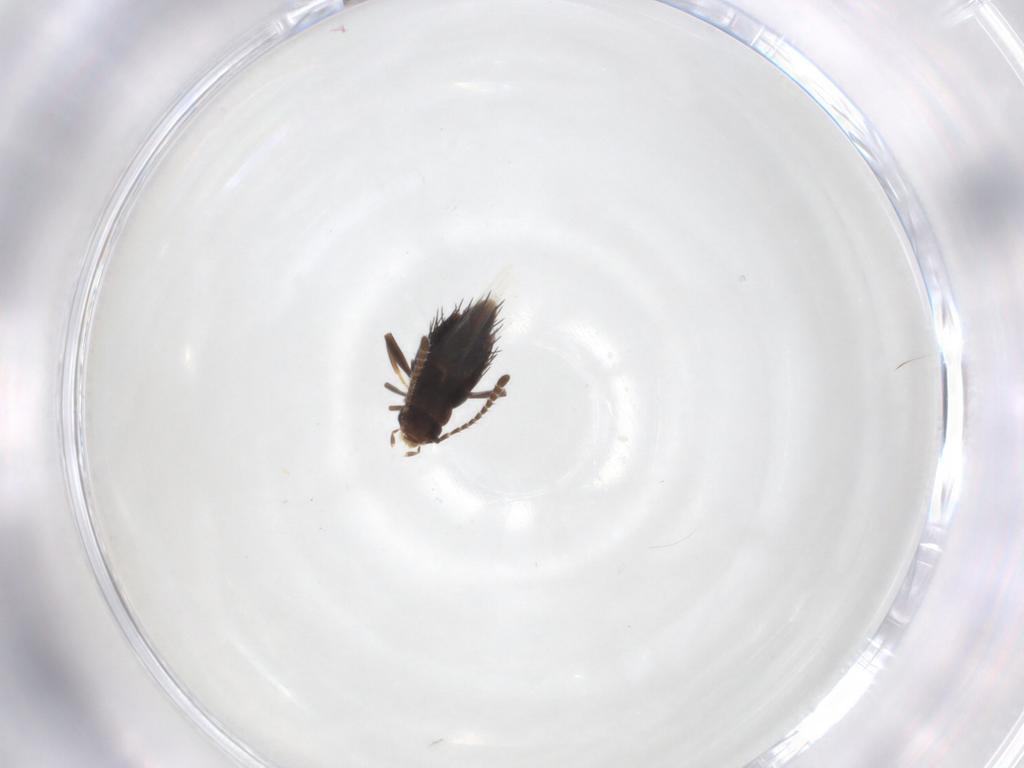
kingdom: Animalia
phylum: Arthropoda
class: Insecta
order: Coleoptera
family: Staphylinidae
